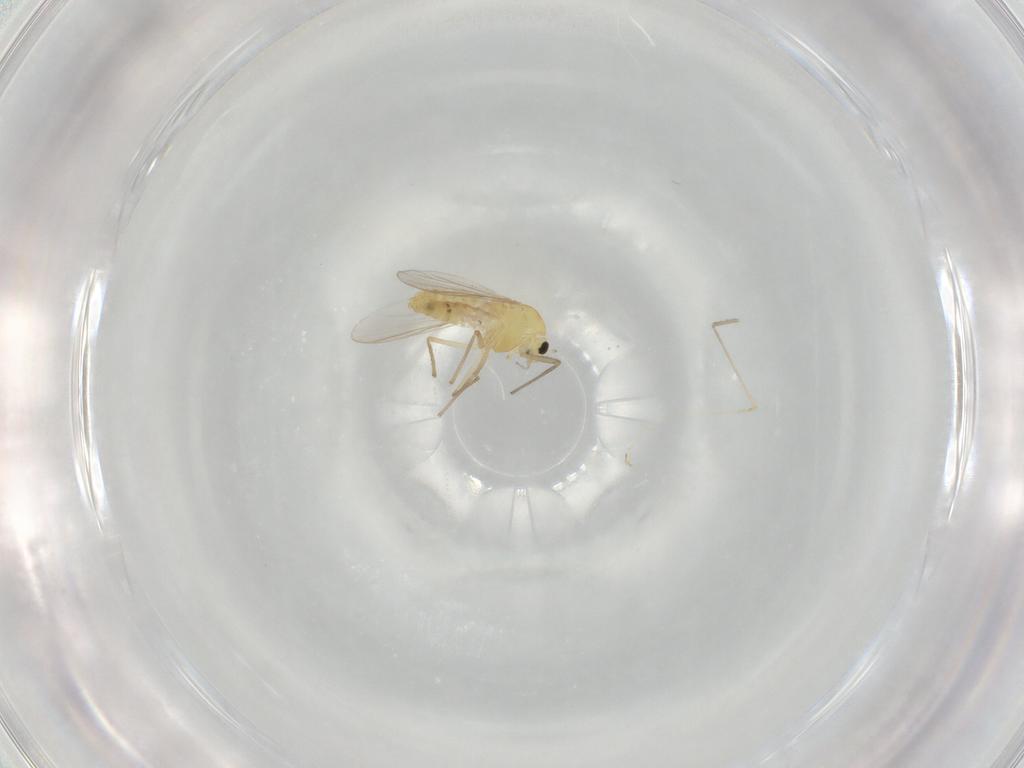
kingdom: Animalia
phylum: Arthropoda
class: Insecta
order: Diptera
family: Chironomidae
